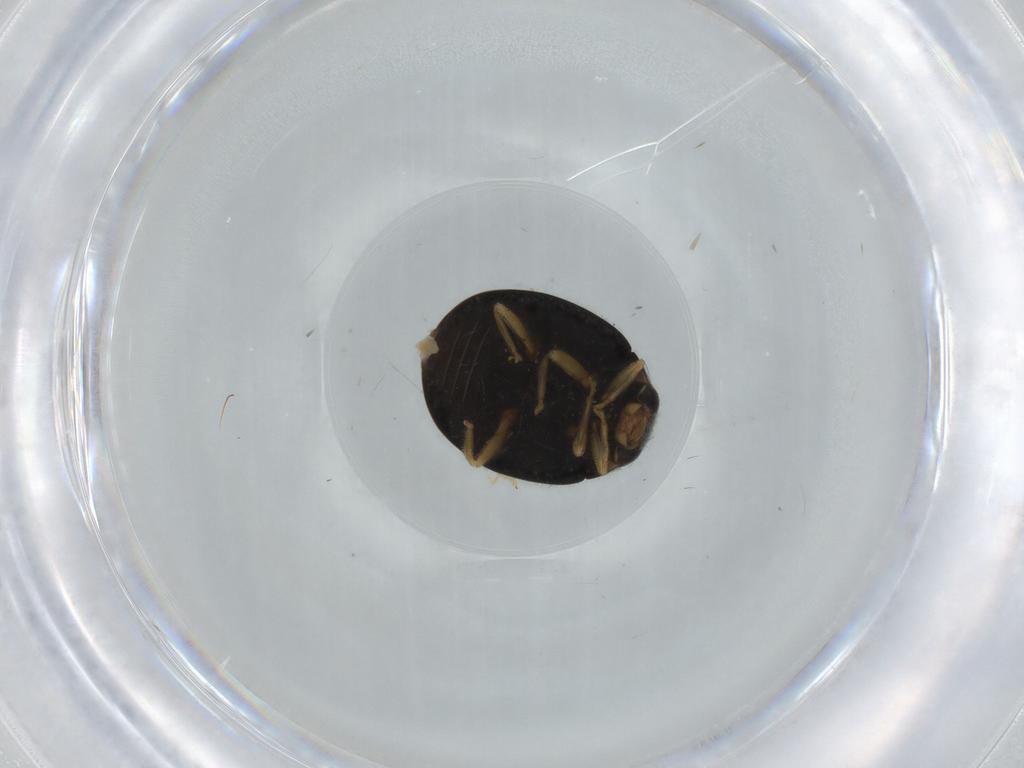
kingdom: Animalia
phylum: Arthropoda
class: Insecta
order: Coleoptera
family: Coccinellidae
